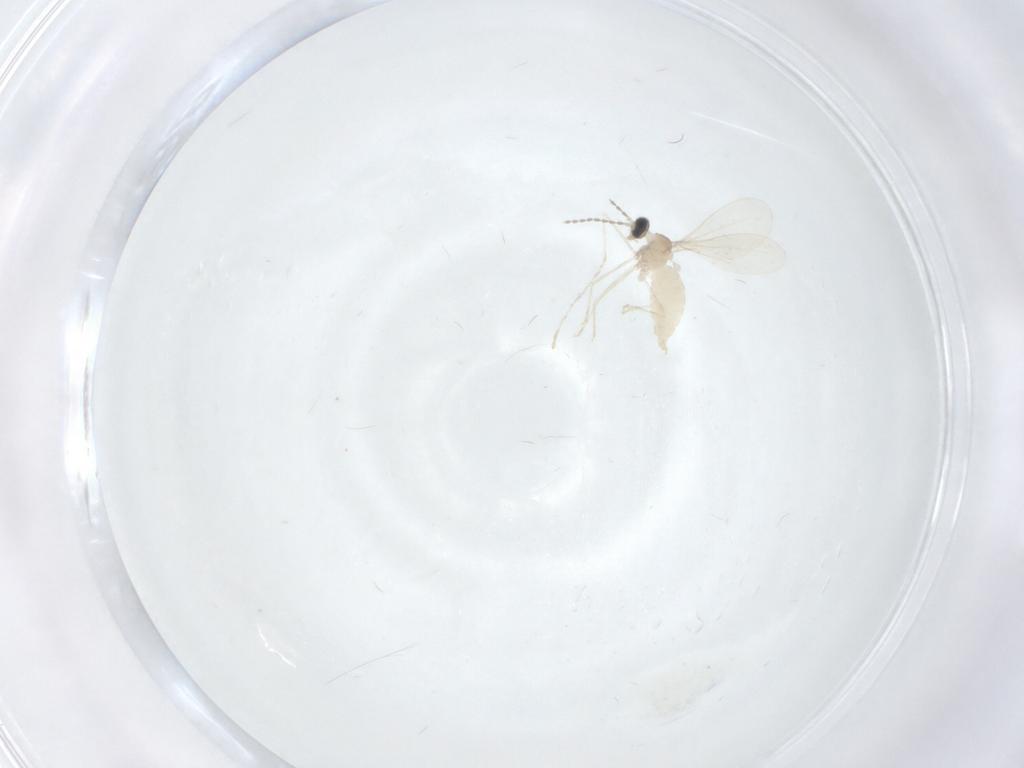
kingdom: Animalia
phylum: Arthropoda
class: Insecta
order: Diptera
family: Cecidomyiidae
